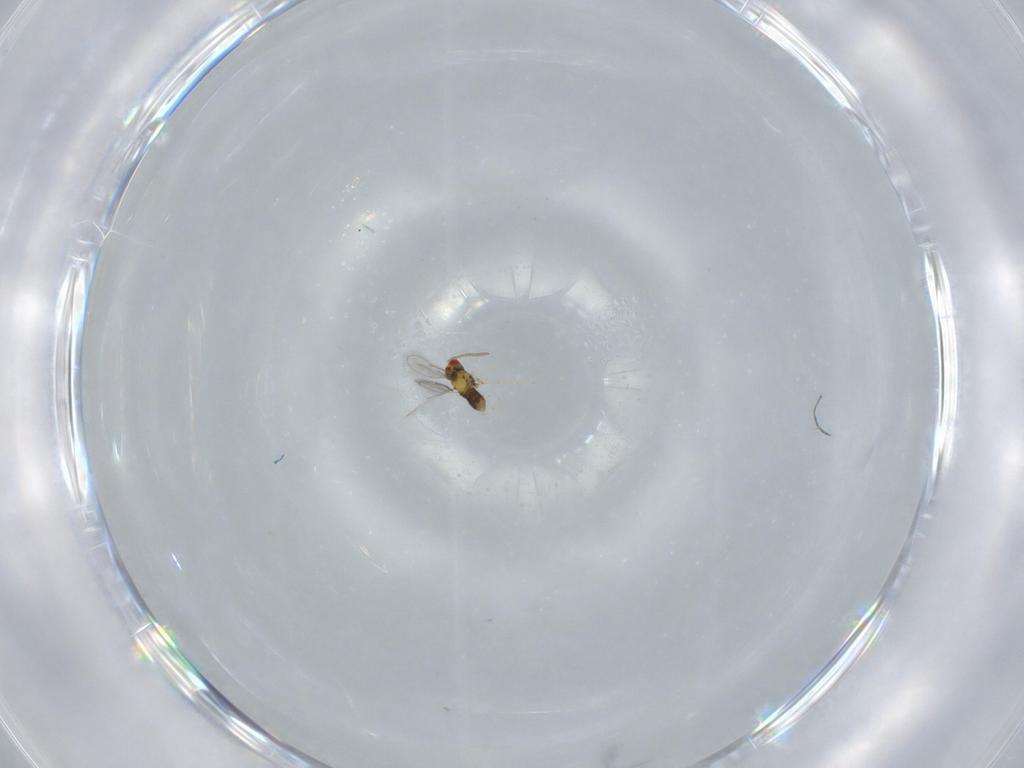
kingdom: Animalia
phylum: Arthropoda
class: Insecta
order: Hymenoptera
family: Aphelinidae
